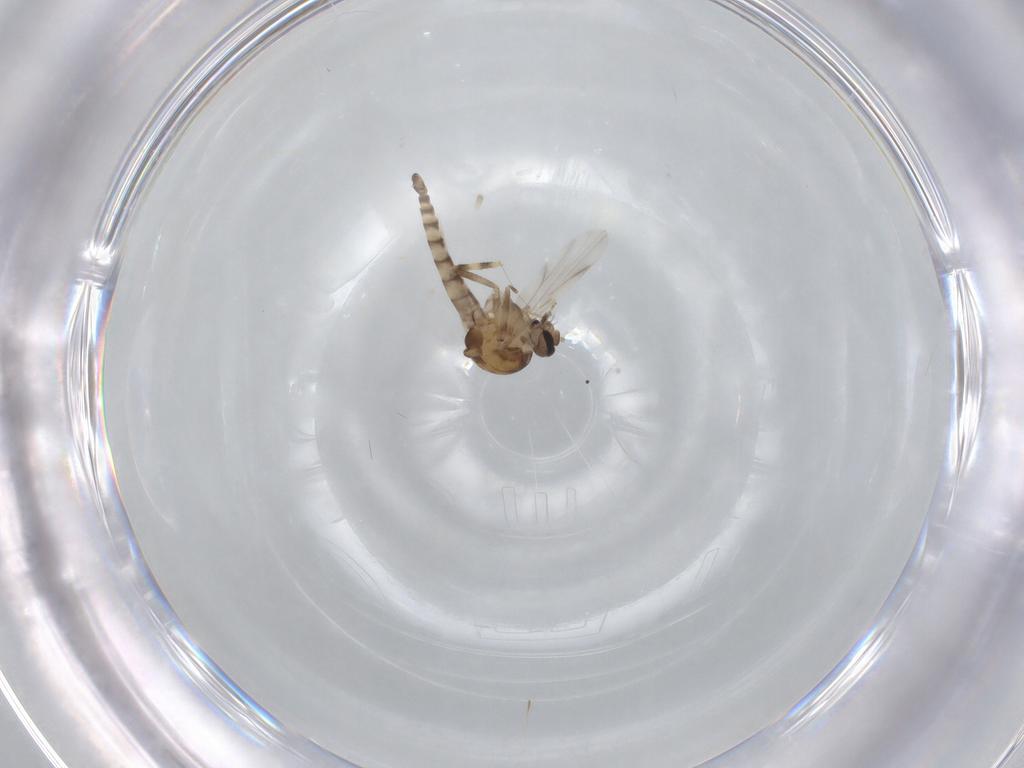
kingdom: Animalia
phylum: Arthropoda
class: Insecta
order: Diptera
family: Ceratopogonidae
